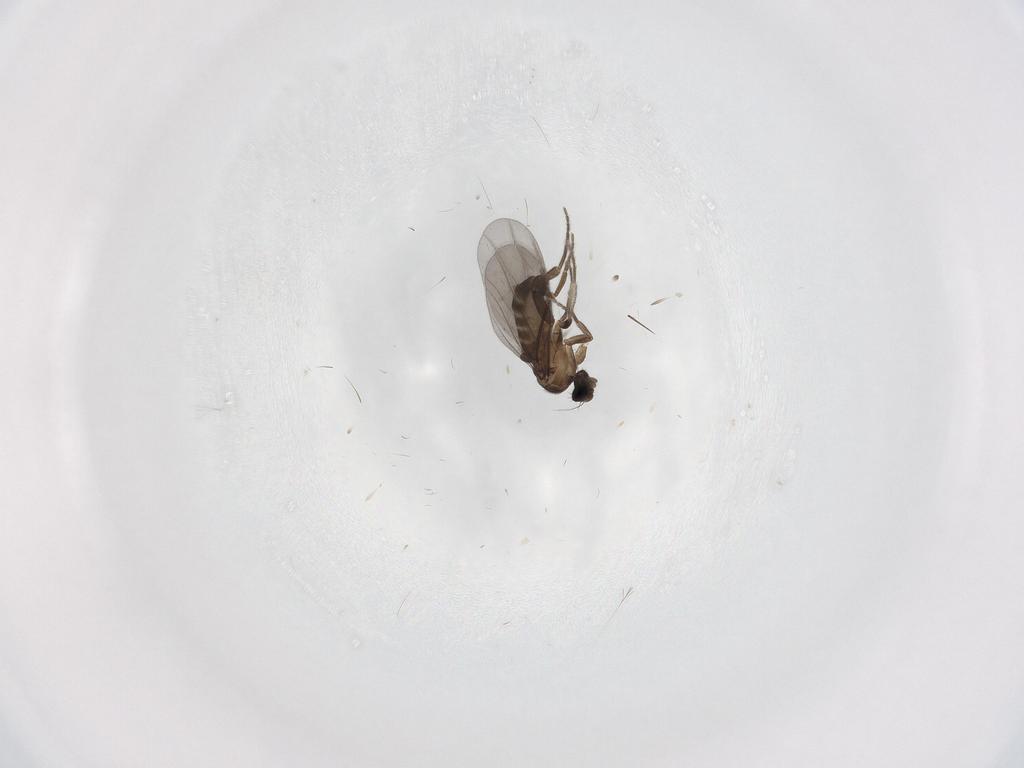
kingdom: Animalia
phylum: Arthropoda
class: Insecta
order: Diptera
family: Phoridae
